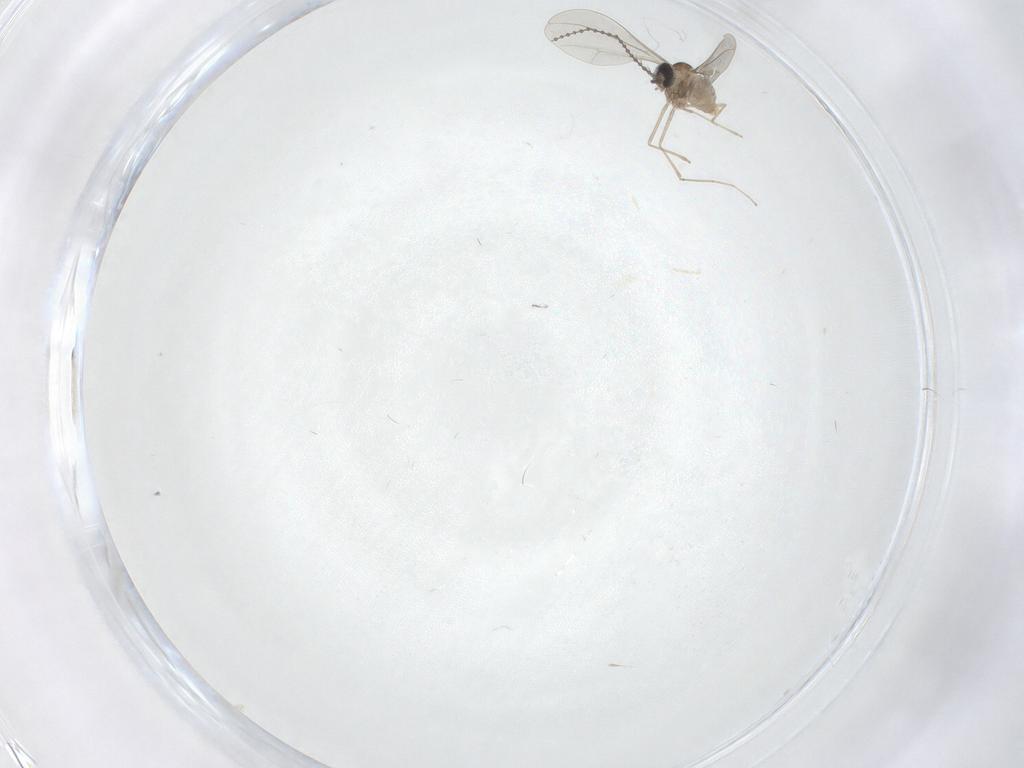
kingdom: Animalia
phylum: Arthropoda
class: Insecta
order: Diptera
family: Cecidomyiidae
